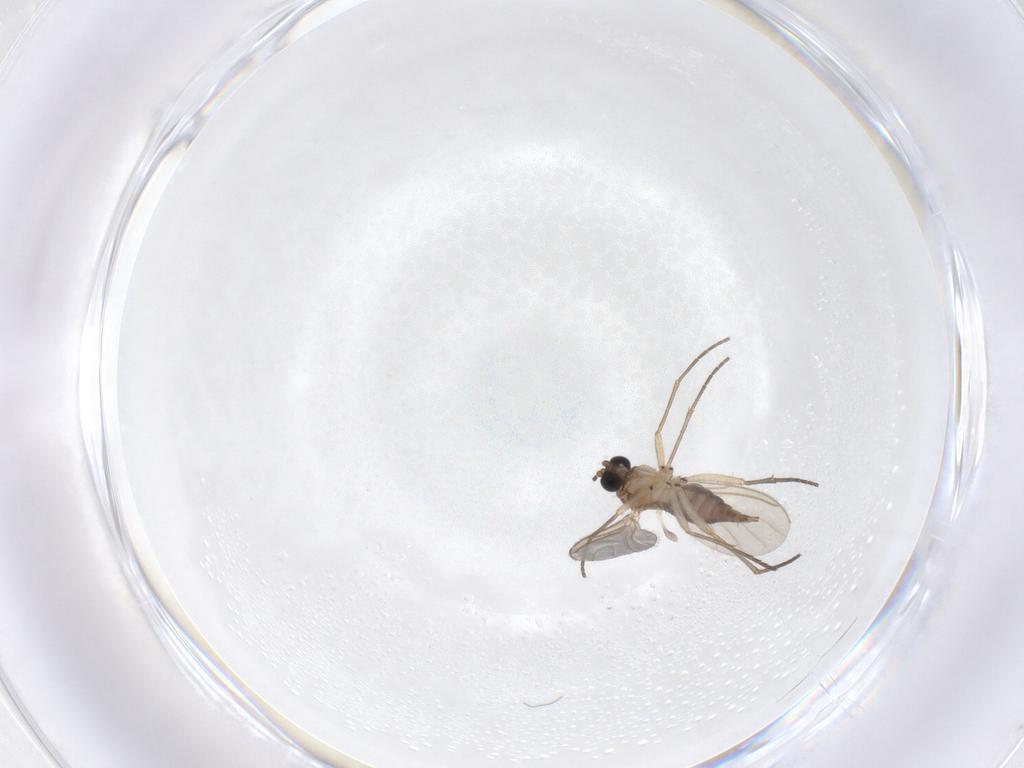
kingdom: Animalia
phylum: Arthropoda
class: Insecta
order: Diptera
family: Sciaridae
